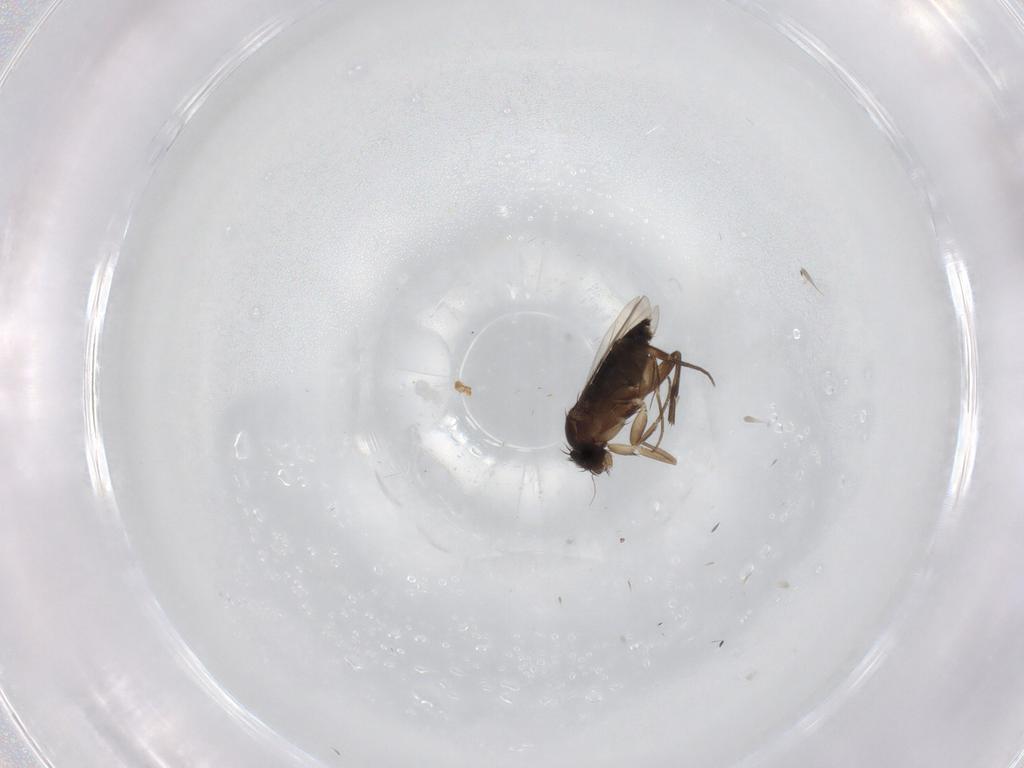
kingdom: Animalia
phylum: Arthropoda
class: Insecta
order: Diptera
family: Phoridae
